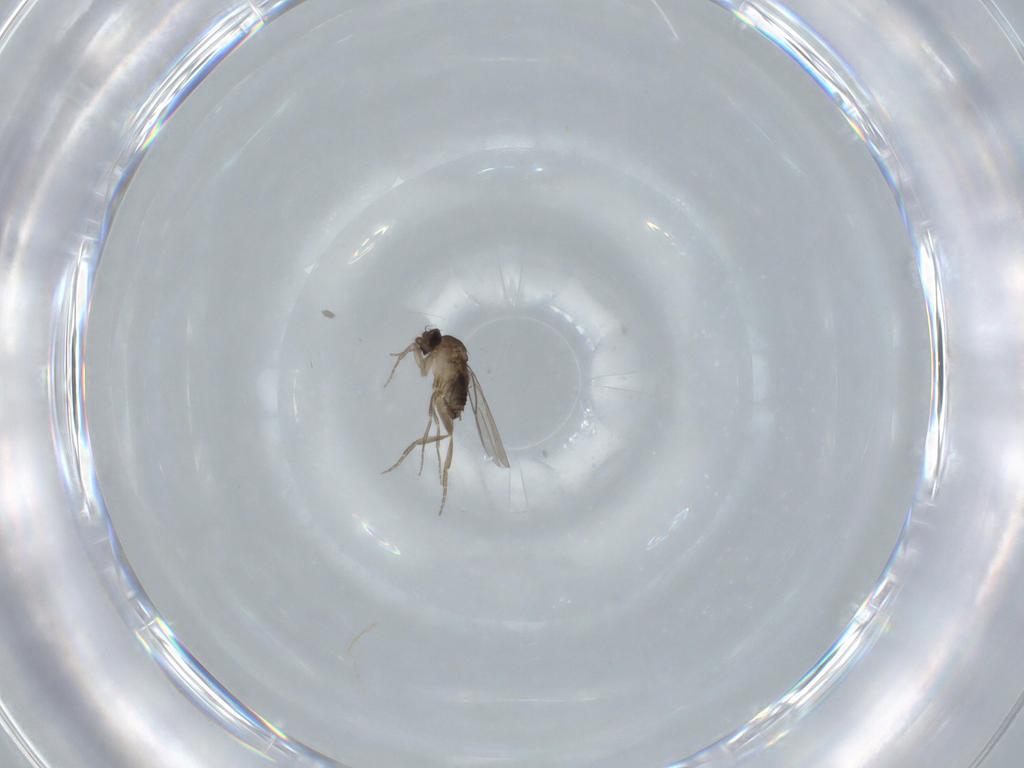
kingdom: Animalia
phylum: Arthropoda
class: Insecta
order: Diptera
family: Phoridae
